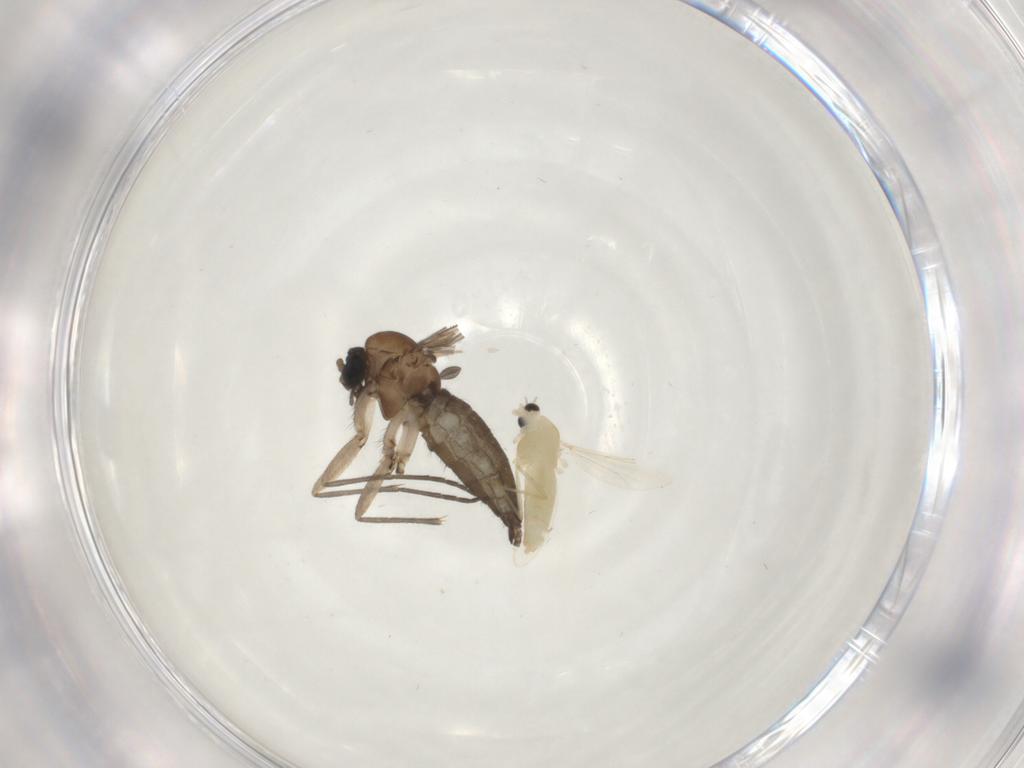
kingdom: Animalia
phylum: Arthropoda
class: Insecta
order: Diptera
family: Chironomidae
